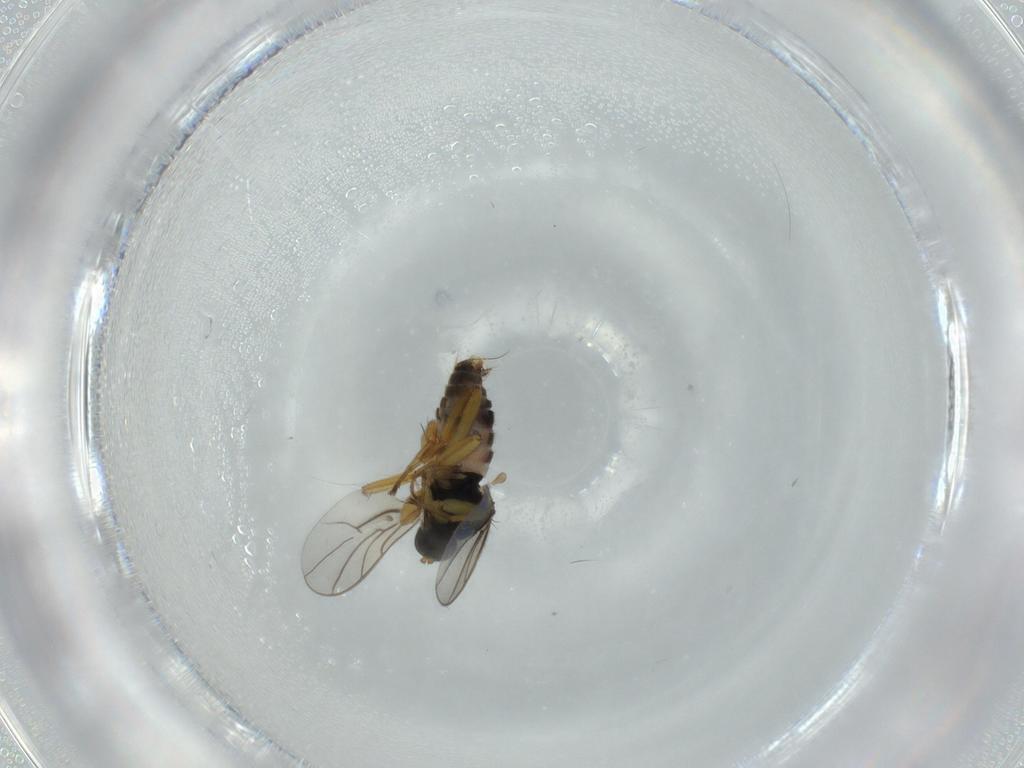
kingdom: Animalia
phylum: Arthropoda
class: Insecta
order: Diptera
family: Hybotidae
